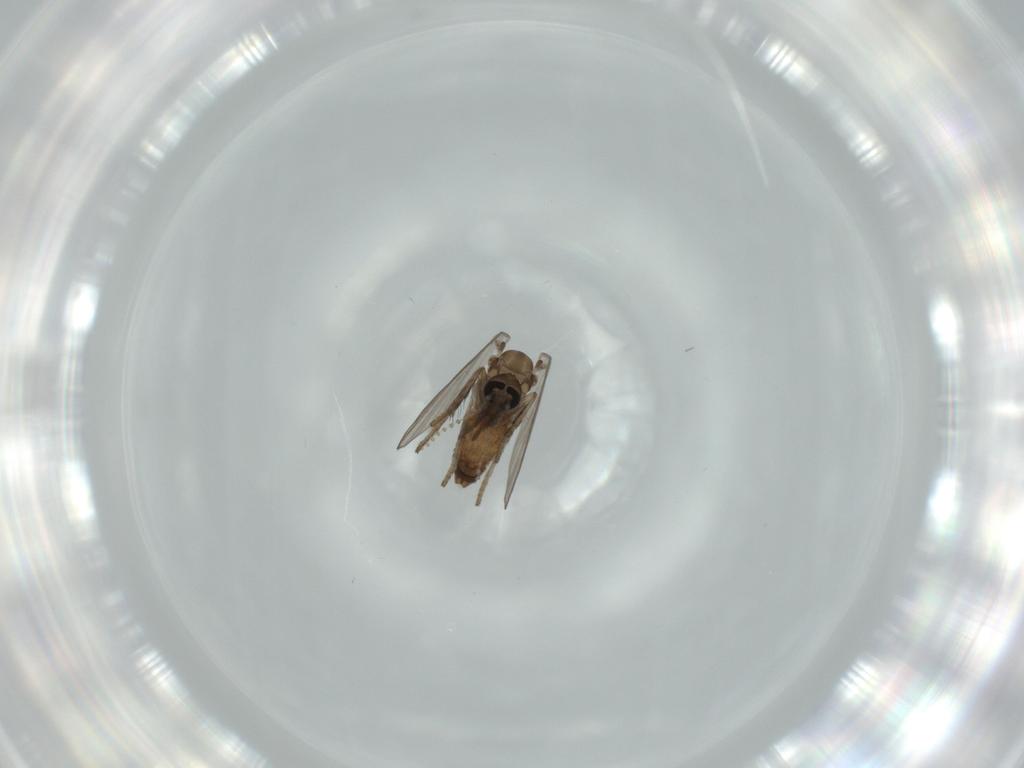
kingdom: Animalia
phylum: Arthropoda
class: Insecta
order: Diptera
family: Psychodidae
